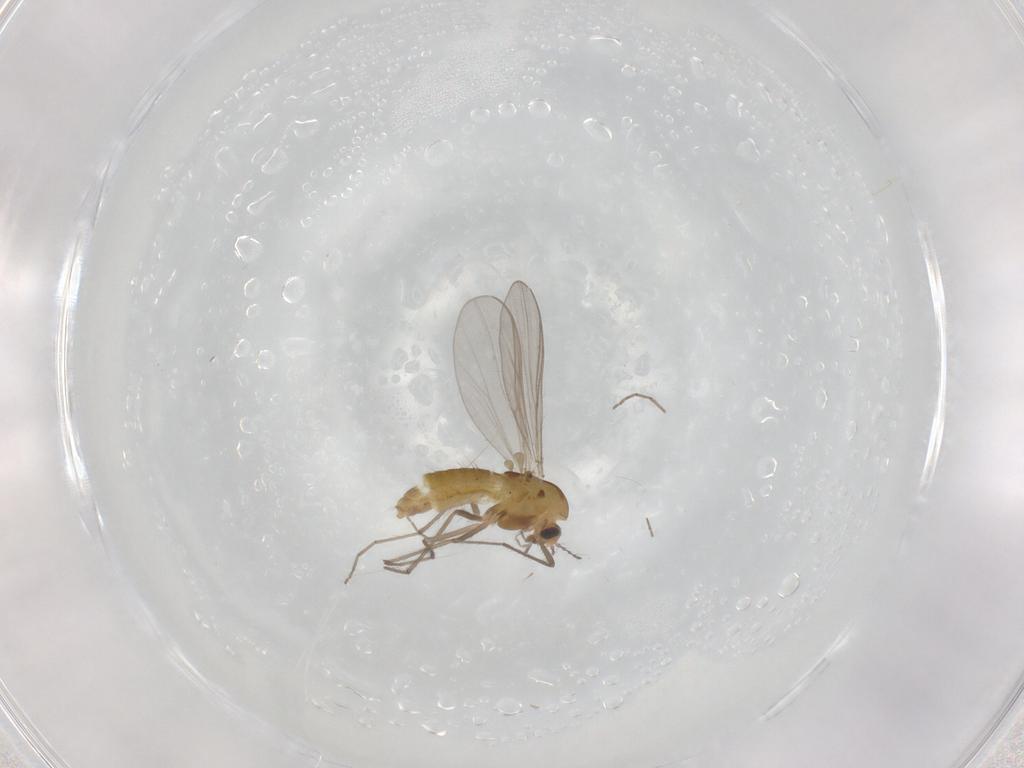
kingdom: Animalia
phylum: Arthropoda
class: Insecta
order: Diptera
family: Chironomidae
